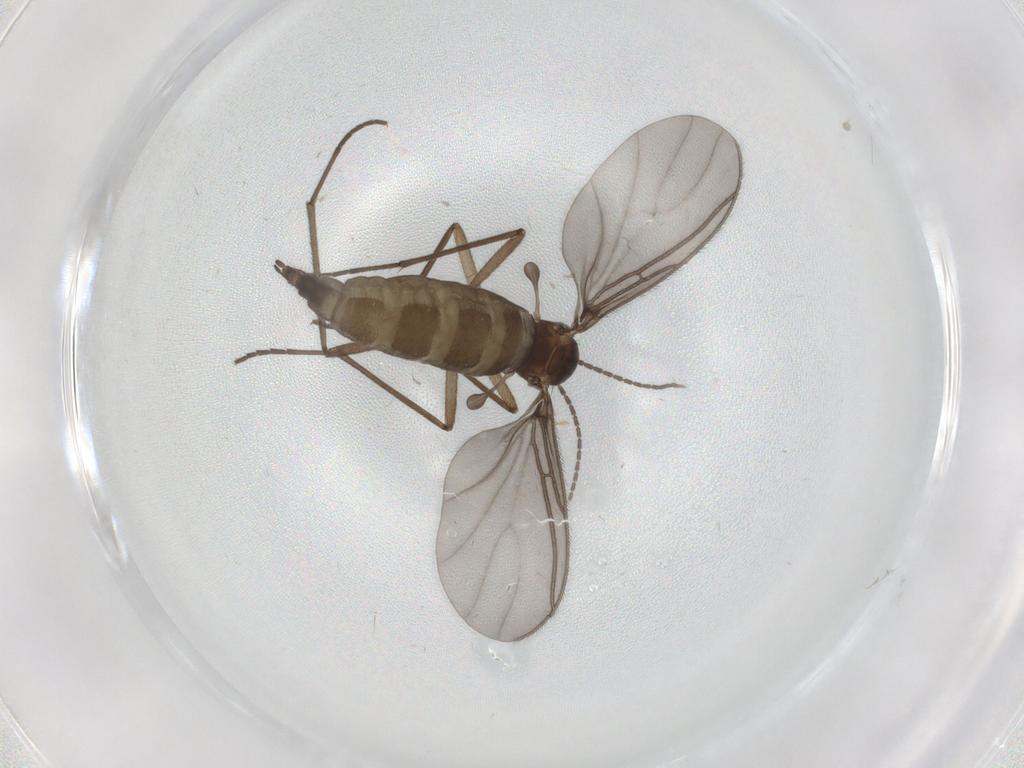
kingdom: Animalia
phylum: Arthropoda
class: Insecta
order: Diptera
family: Sciaridae
